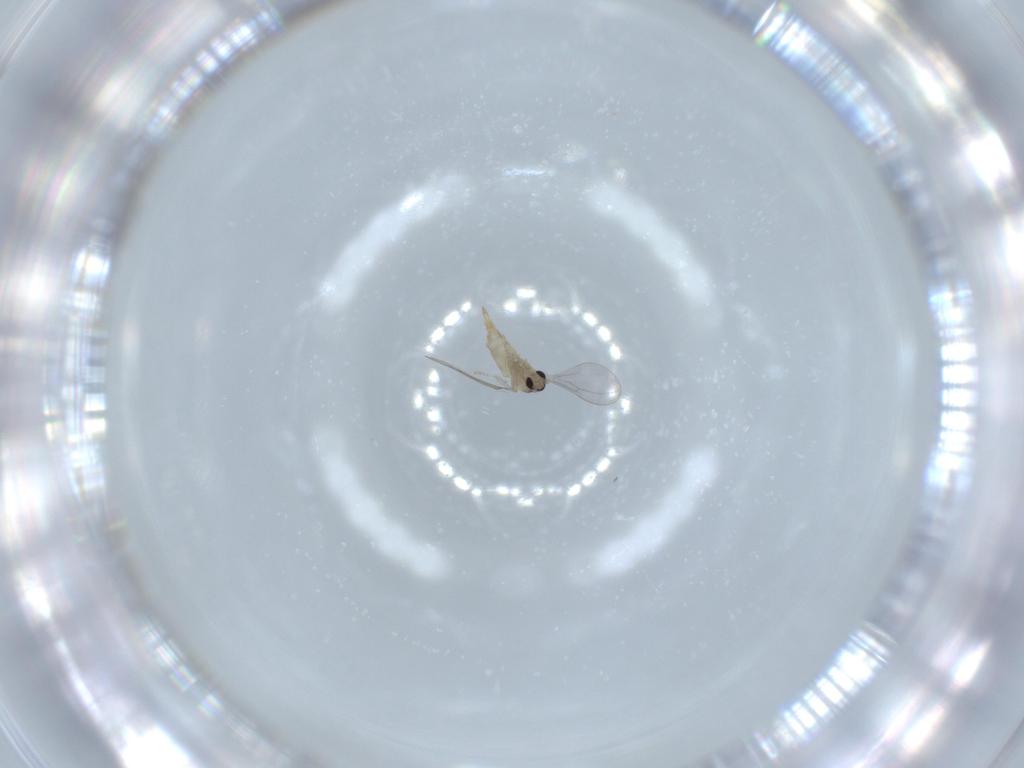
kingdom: Animalia
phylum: Arthropoda
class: Insecta
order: Diptera
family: Cecidomyiidae
